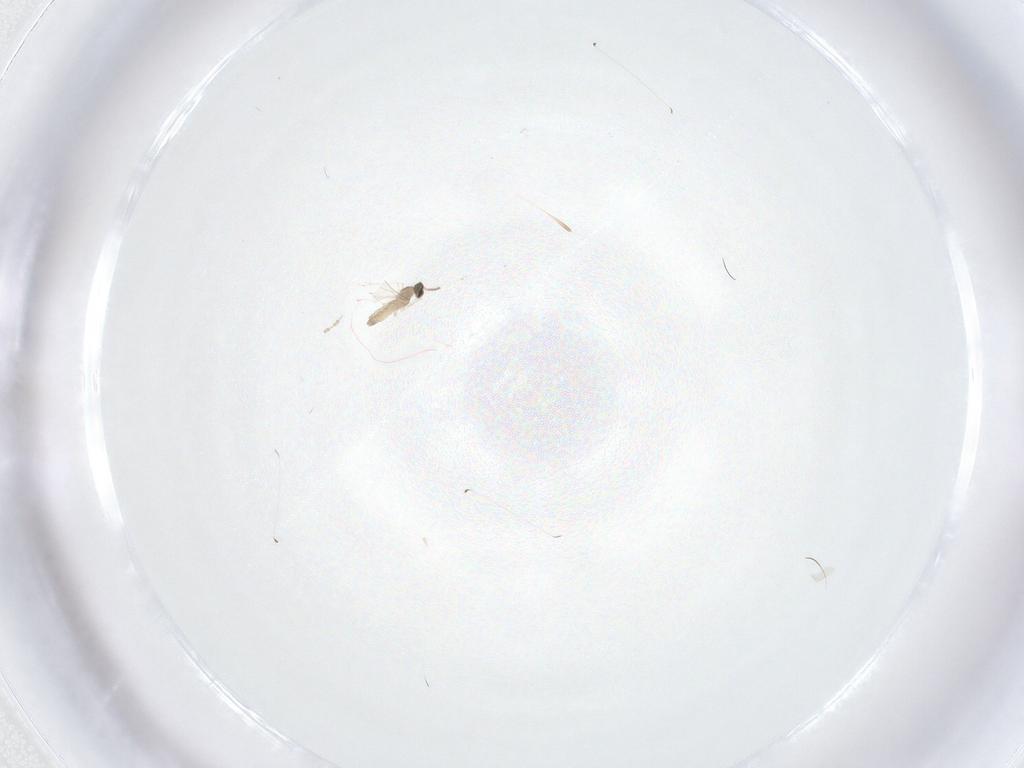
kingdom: Animalia
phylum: Arthropoda
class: Insecta
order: Diptera
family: Cecidomyiidae
